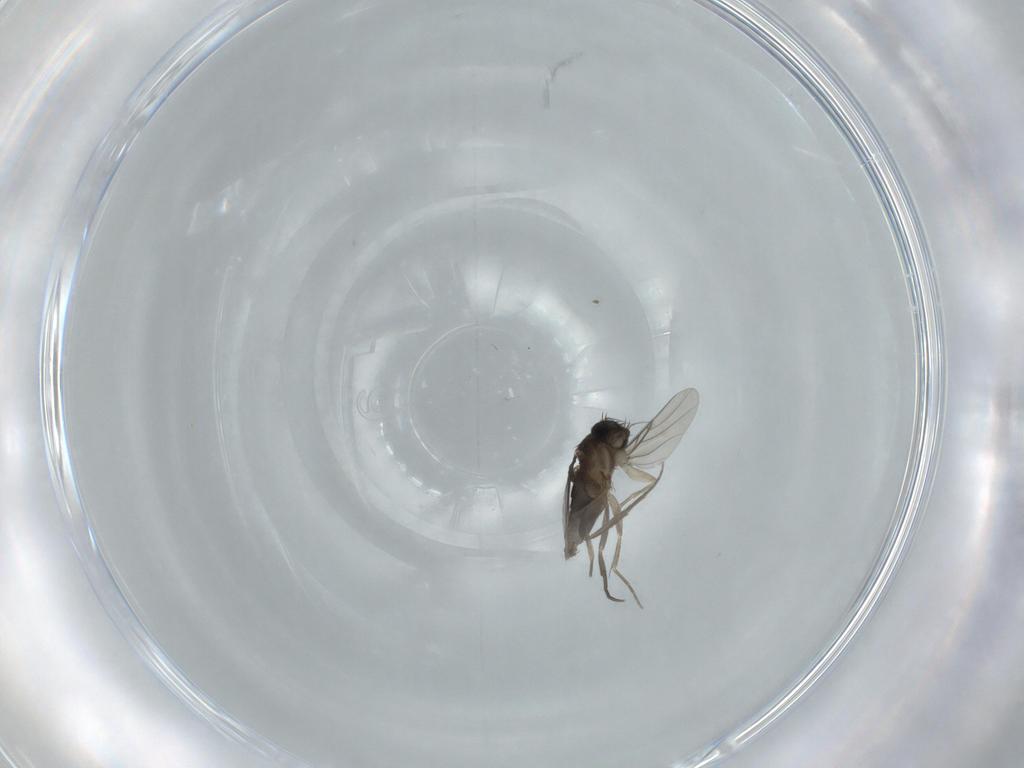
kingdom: Animalia
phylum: Arthropoda
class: Insecta
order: Diptera
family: Phoridae
